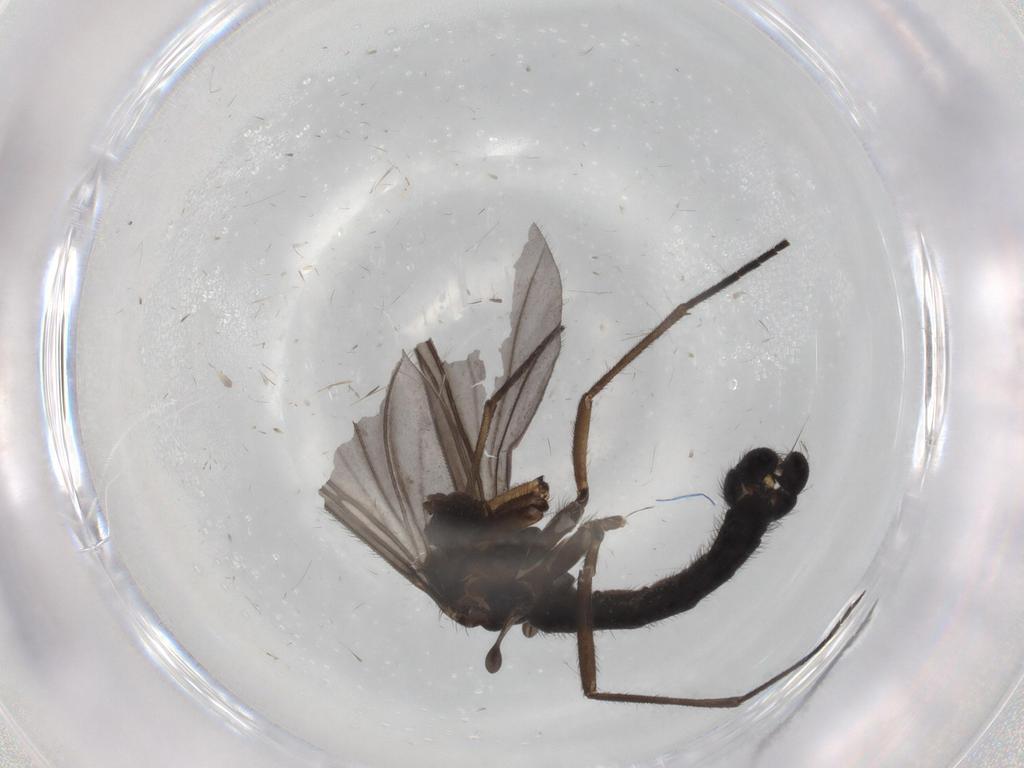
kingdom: Animalia
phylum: Arthropoda
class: Insecta
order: Diptera
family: Sciaridae
